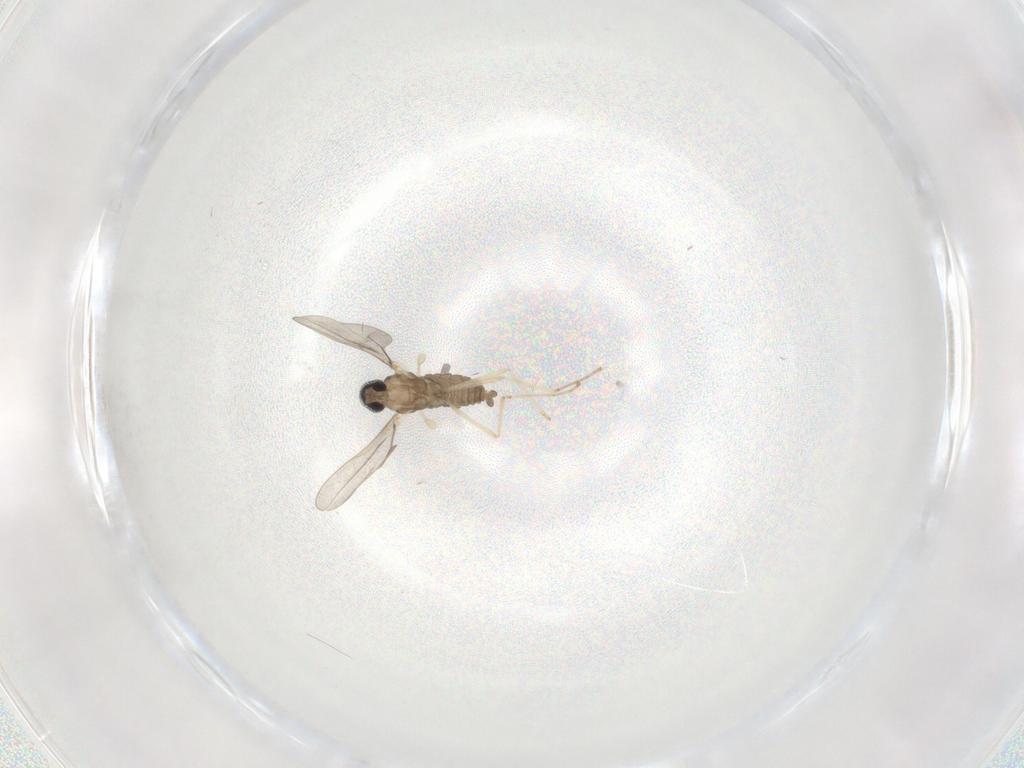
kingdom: Animalia
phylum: Arthropoda
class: Insecta
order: Diptera
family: Cecidomyiidae
